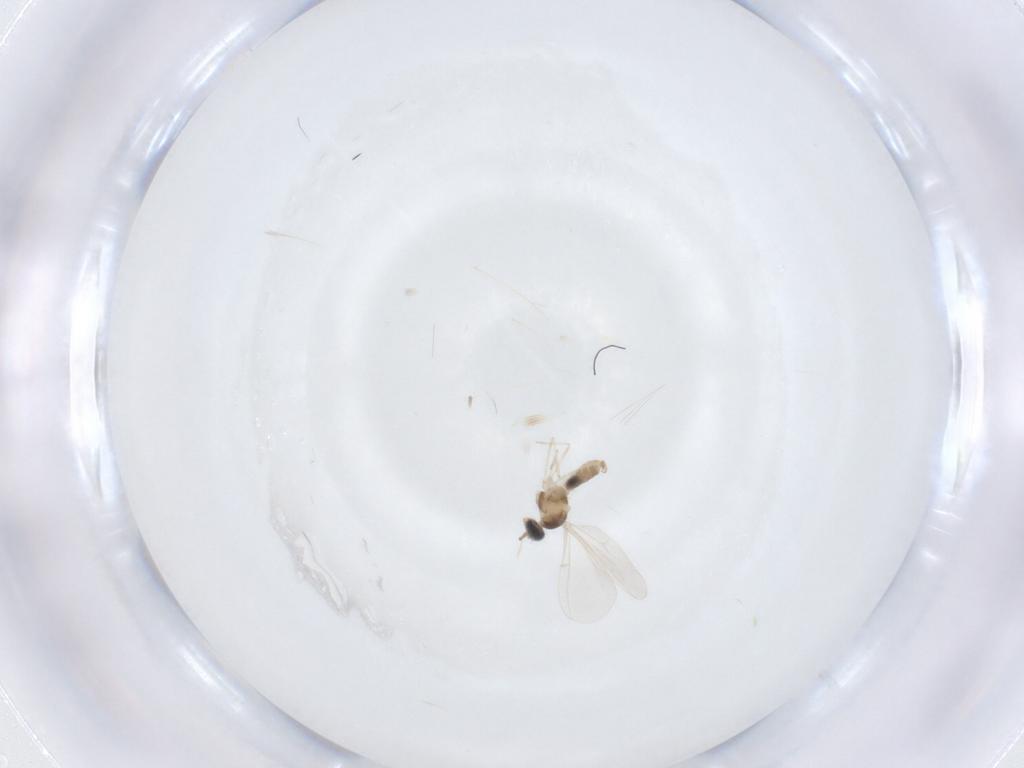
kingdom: Animalia
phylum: Arthropoda
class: Insecta
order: Diptera
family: Cecidomyiidae
